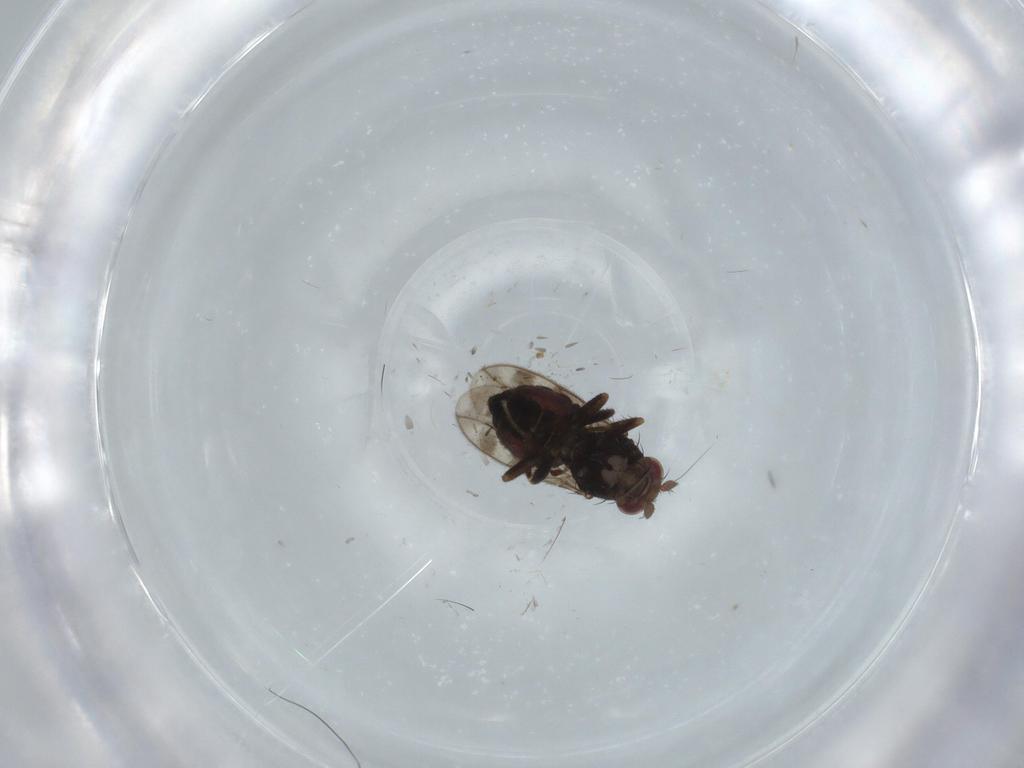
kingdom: Animalia
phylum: Arthropoda
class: Insecta
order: Diptera
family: Sphaeroceridae
